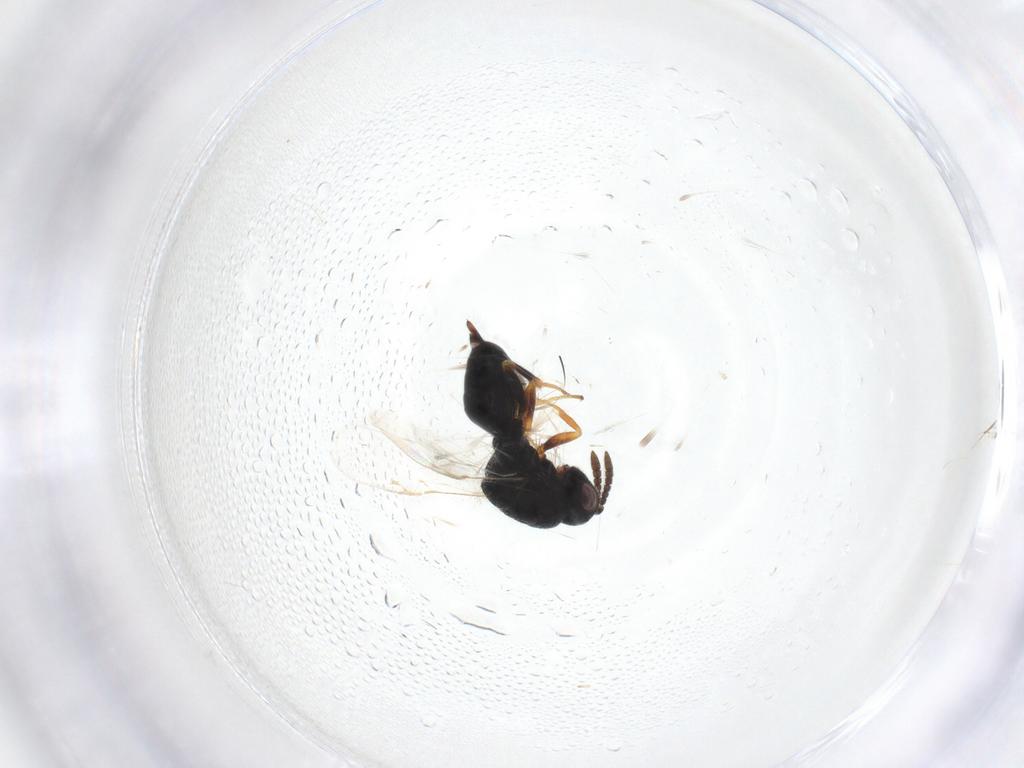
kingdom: Animalia
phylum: Arthropoda
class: Insecta
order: Hymenoptera
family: Eurytomidae
